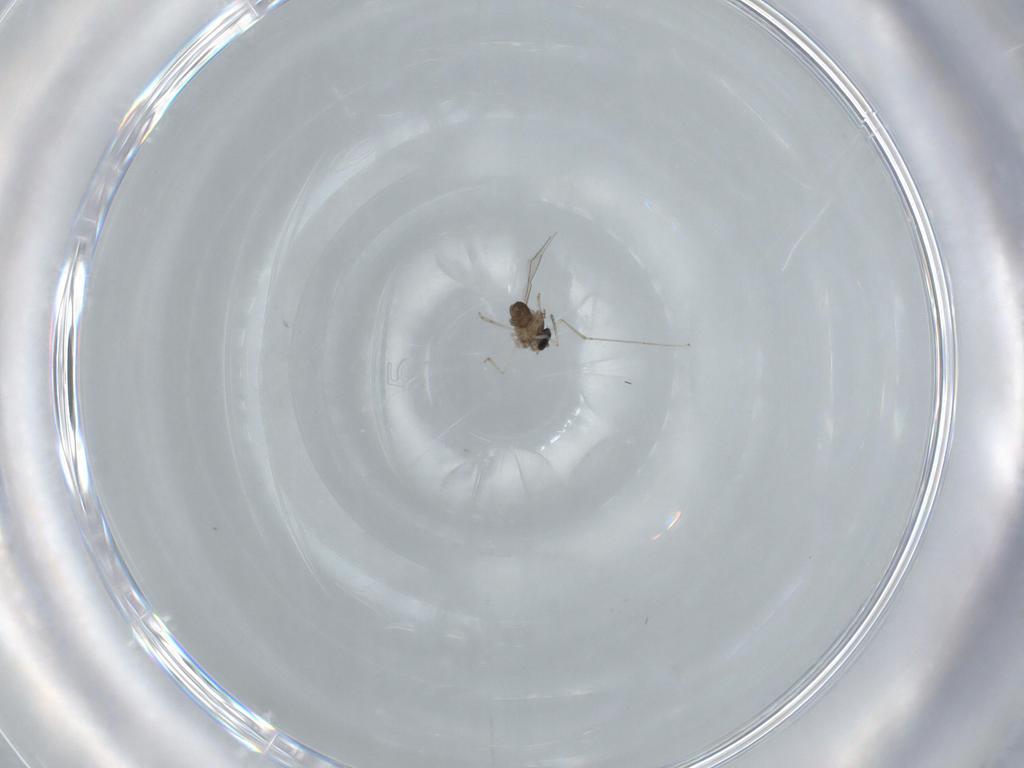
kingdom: Animalia
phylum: Arthropoda
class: Insecta
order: Diptera
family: Cecidomyiidae
